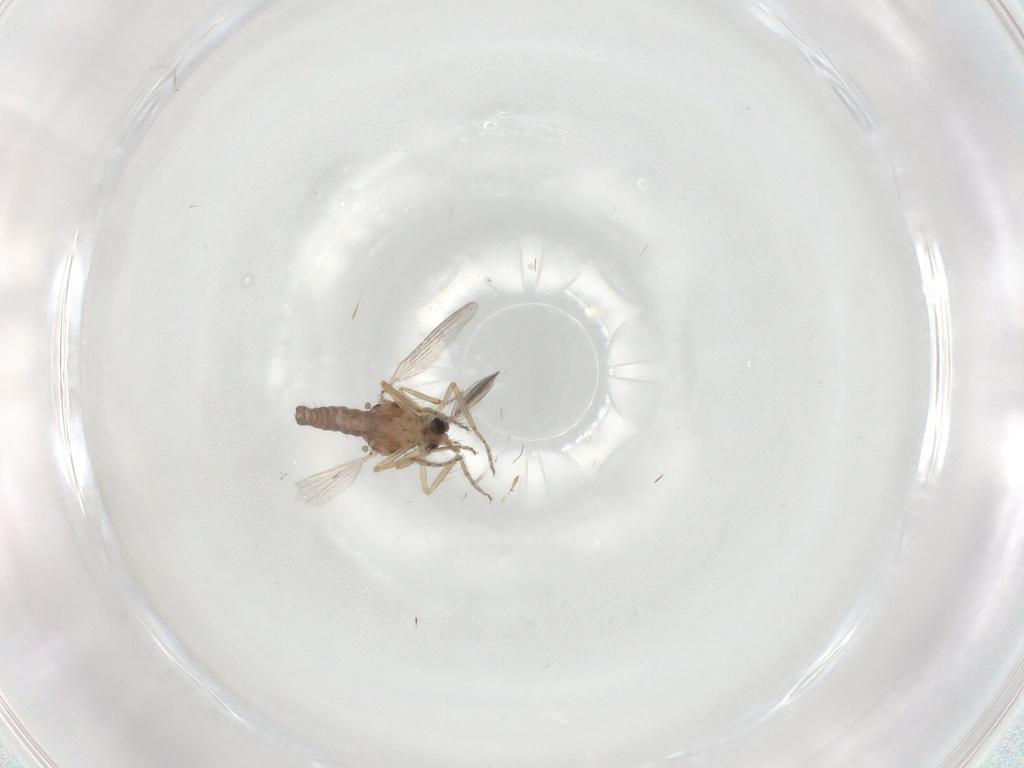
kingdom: Animalia
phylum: Arthropoda
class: Insecta
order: Diptera
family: Ceratopogonidae
